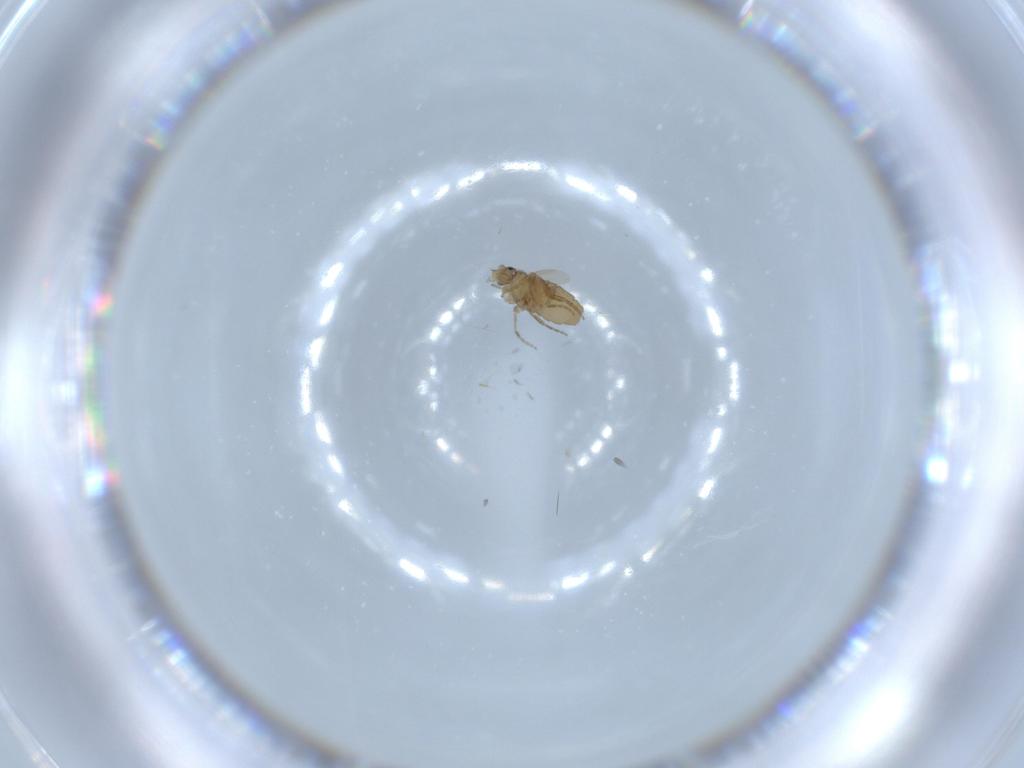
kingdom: Animalia
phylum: Arthropoda
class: Insecta
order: Diptera
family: Phoridae
